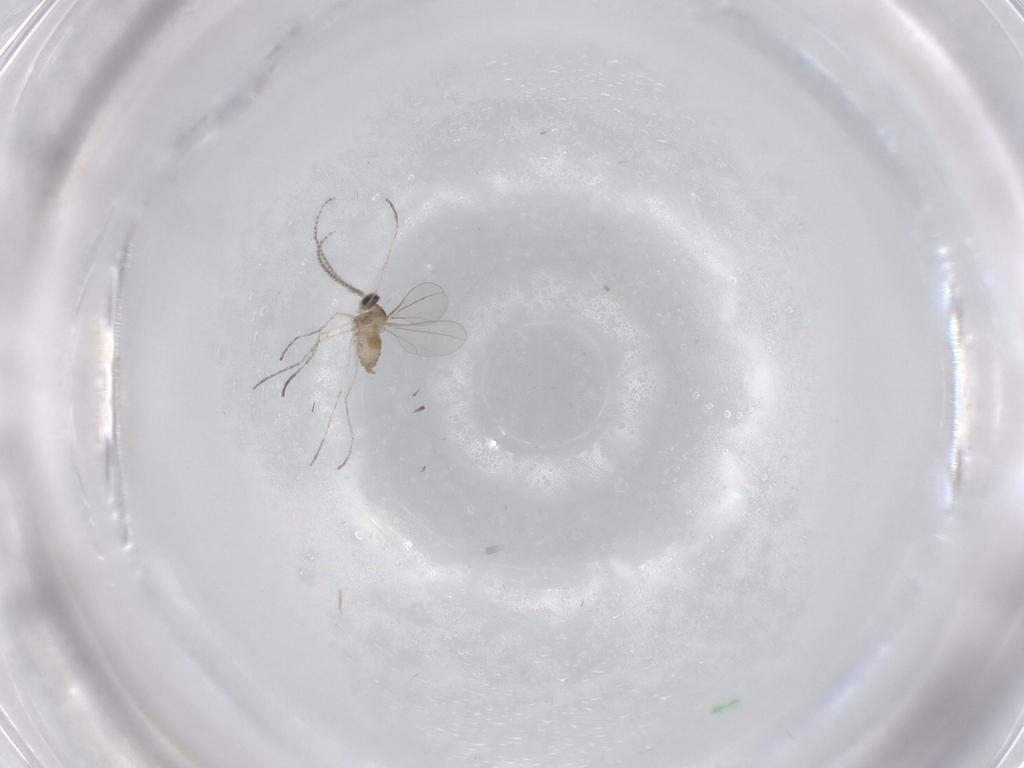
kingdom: Animalia
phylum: Arthropoda
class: Insecta
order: Diptera
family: Cecidomyiidae
